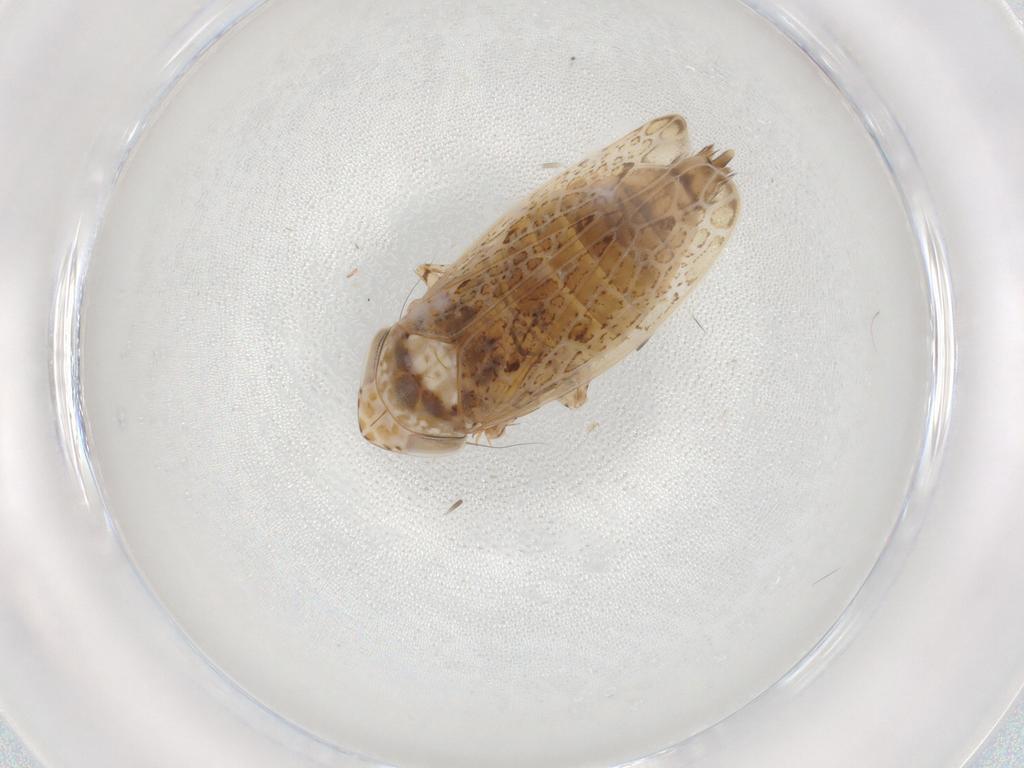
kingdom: Animalia
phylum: Arthropoda
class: Insecta
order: Hemiptera
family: Cicadellidae
